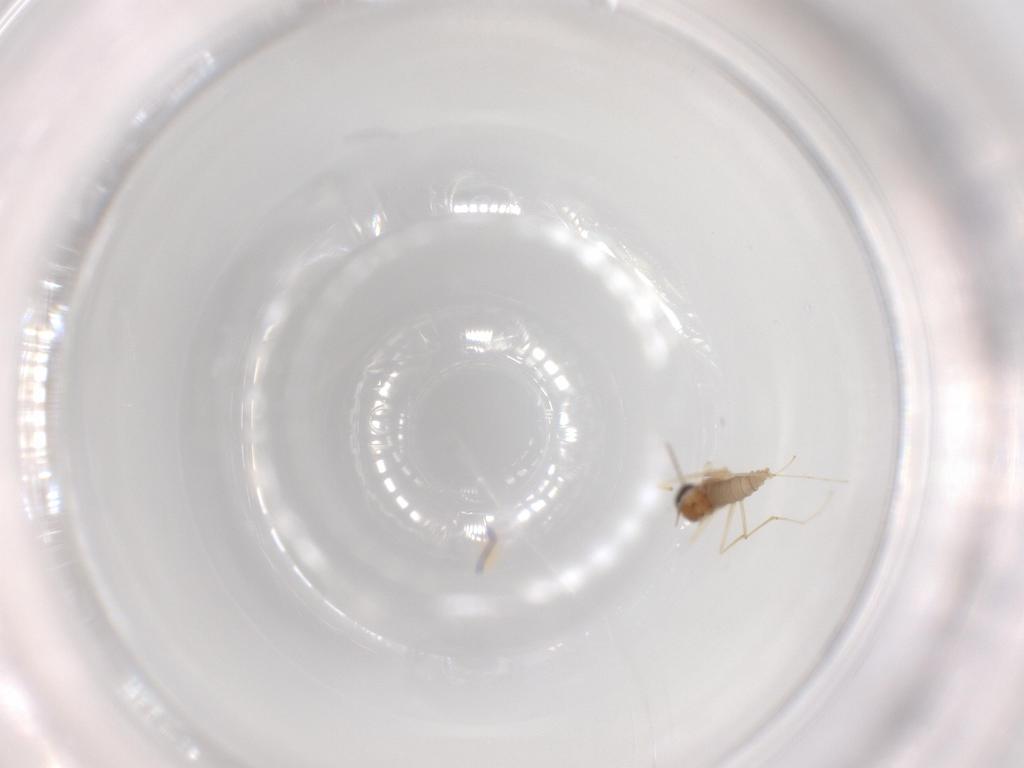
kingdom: Animalia
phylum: Arthropoda
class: Insecta
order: Diptera
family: Cecidomyiidae
